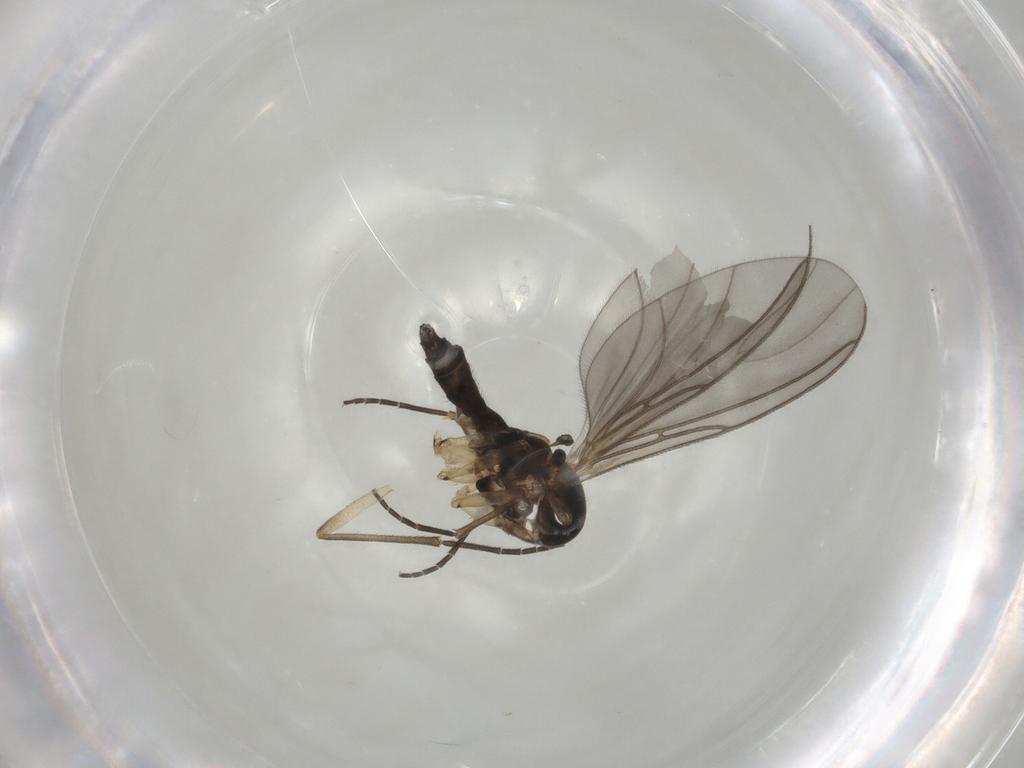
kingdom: Animalia
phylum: Arthropoda
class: Insecta
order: Diptera
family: Sciaridae
